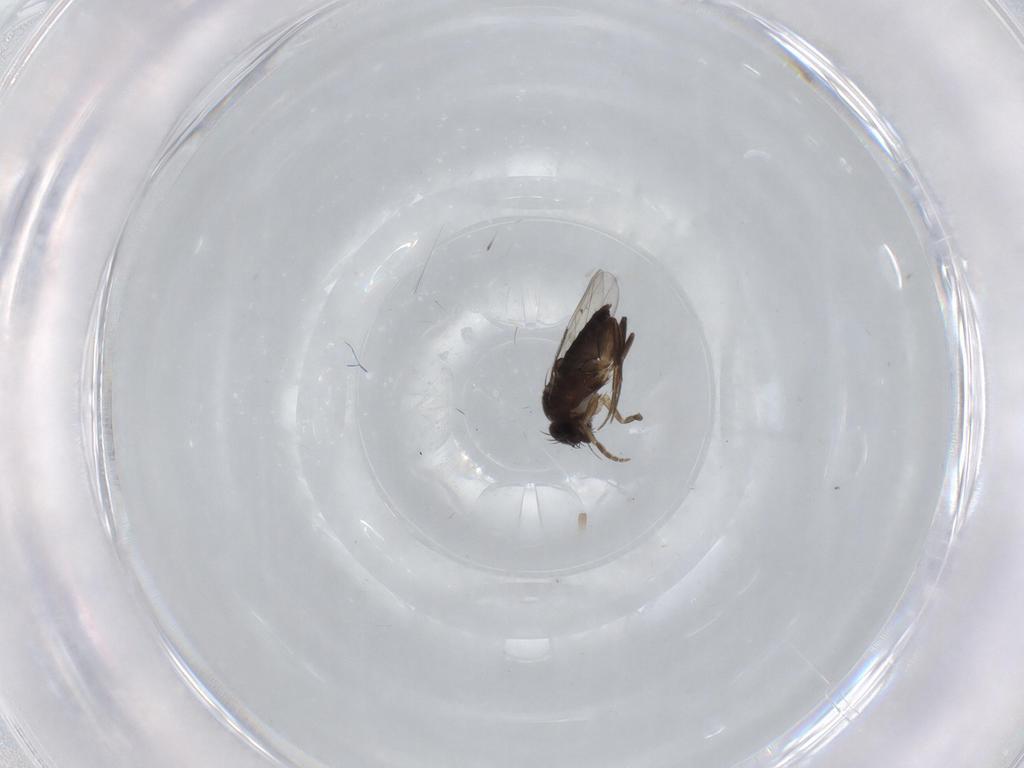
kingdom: Animalia
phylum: Arthropoda
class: Insecta
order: Diptera
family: Phoridae
